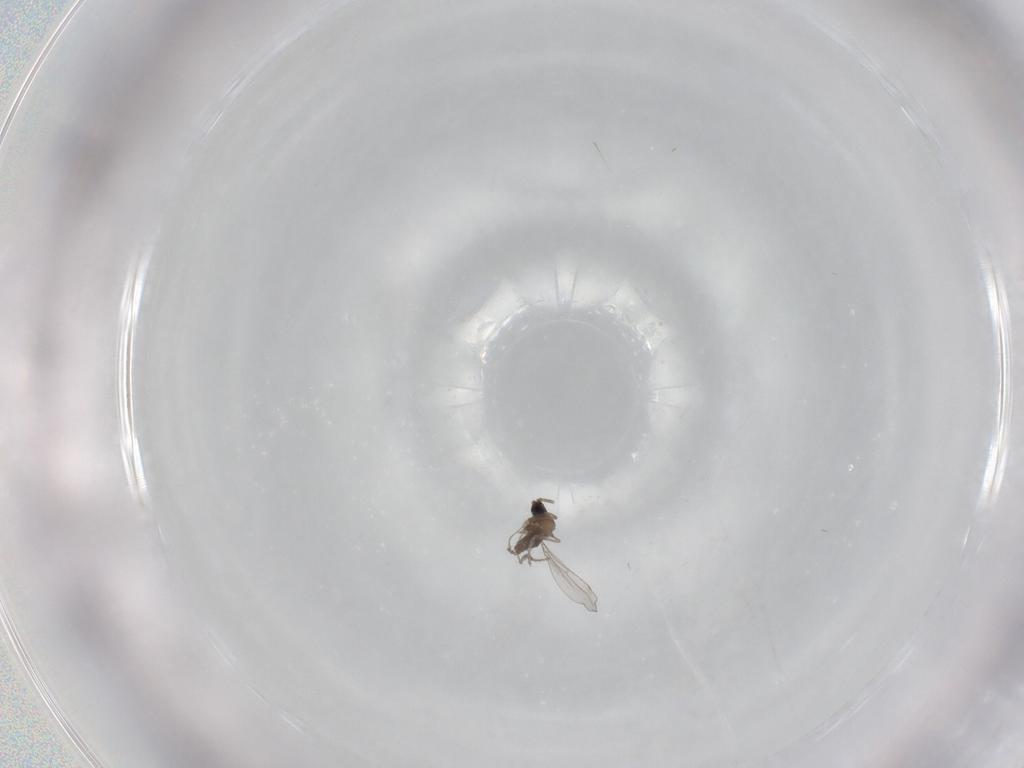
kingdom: Animalia
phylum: Arthropoda
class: Insecta
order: Diptera
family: Cecidomyiidae
